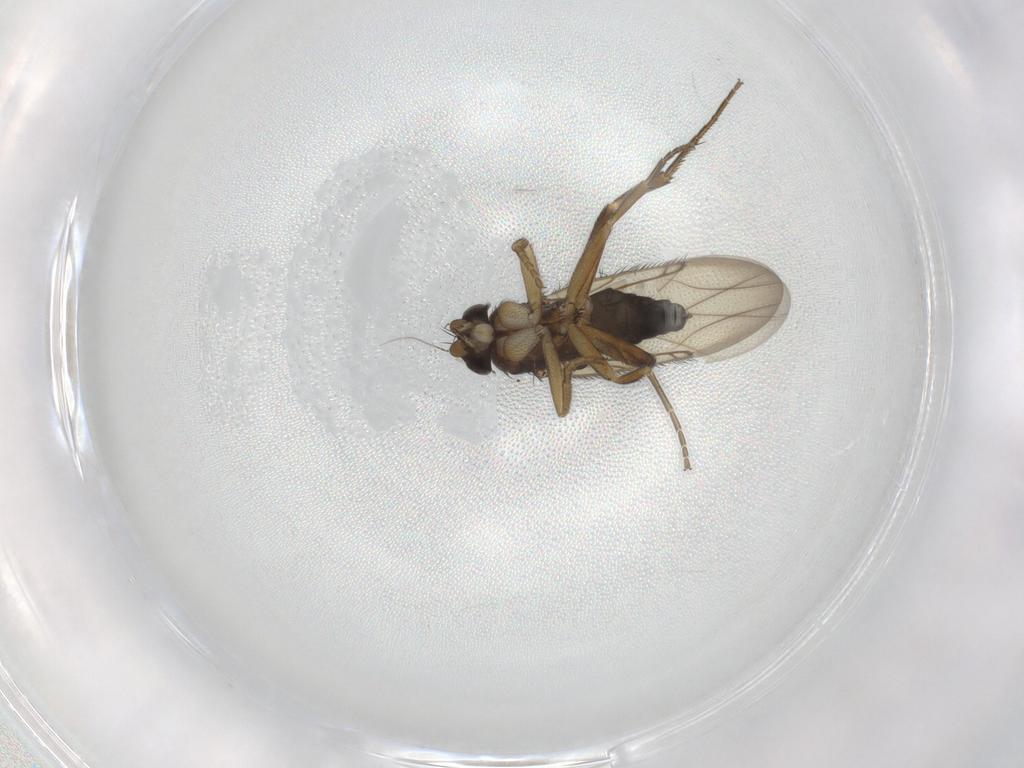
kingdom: Animalia
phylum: Arthropoda
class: Insecta
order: Diptera
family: Phoridae
